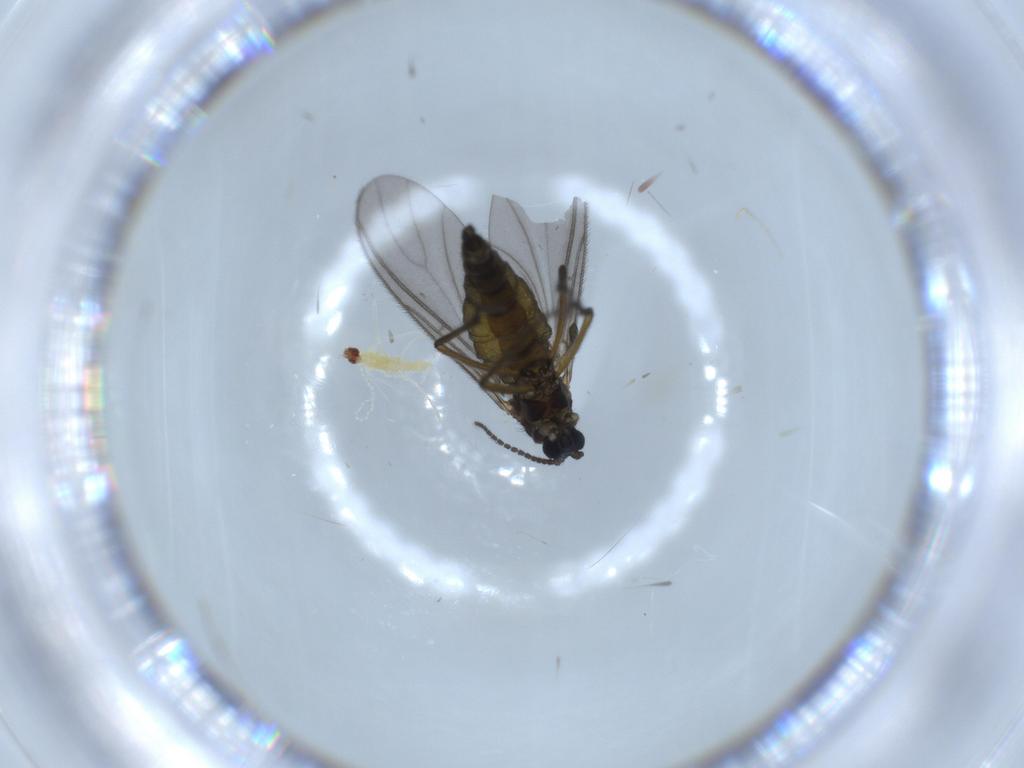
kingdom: Animalia
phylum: Arthropoda
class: Insecta
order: Diptera
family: Sciaridae
